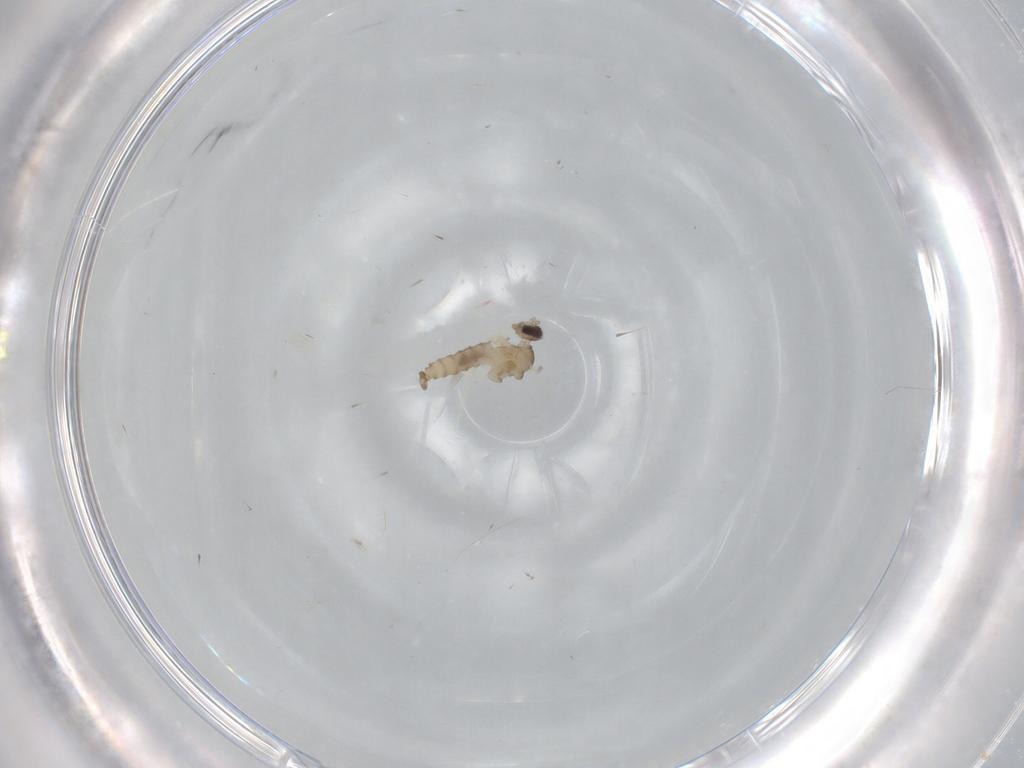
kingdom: Animalia
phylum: Arthropoda
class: Insecta
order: Diptera
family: Cecidomyiidae
